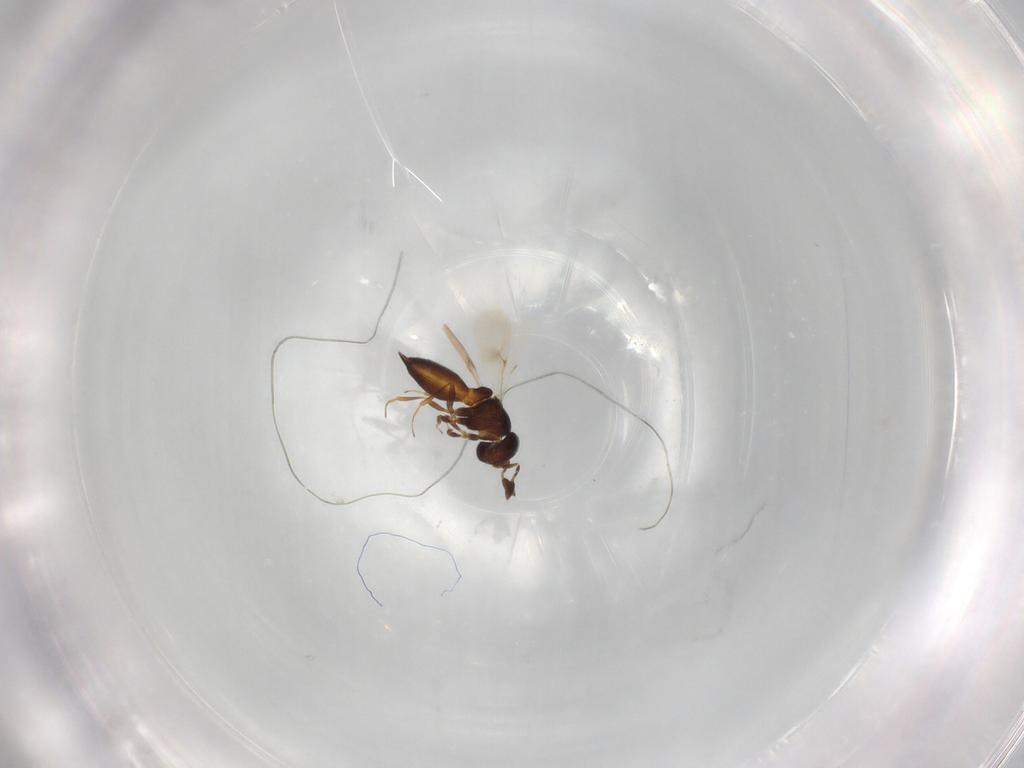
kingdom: Animalia
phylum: Arthropoda
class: Insecta
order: Hymenoptera
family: Scelionidae
